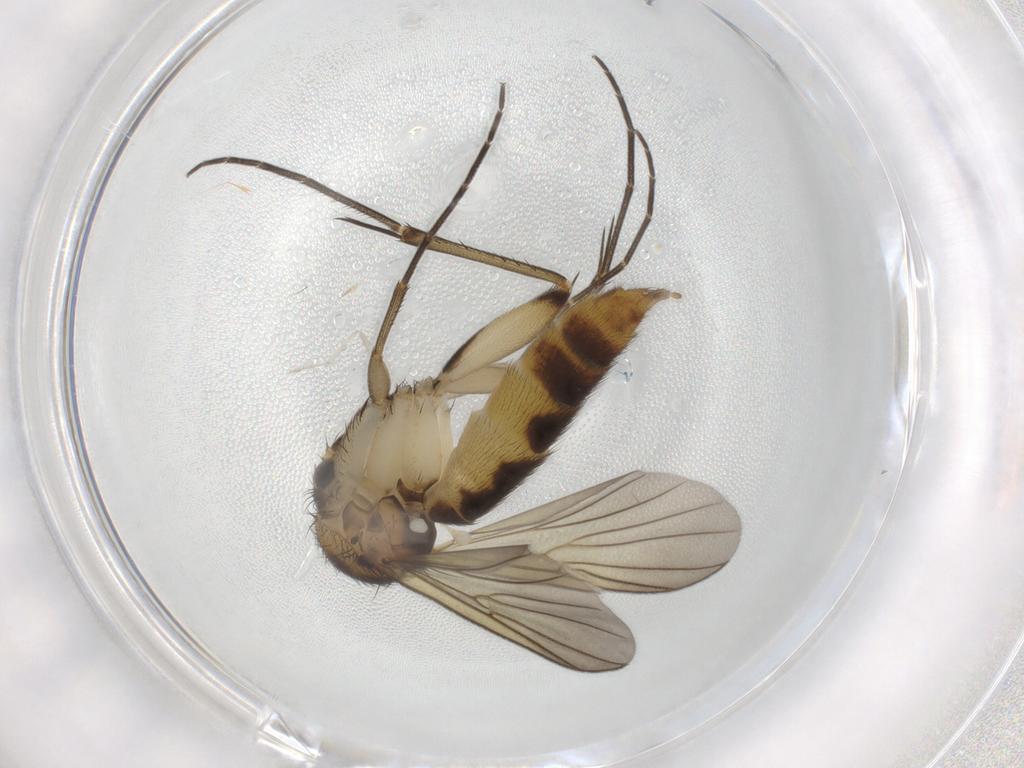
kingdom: Animalia
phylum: Arthropoda
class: Insecta
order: Diptera
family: Mycetophilidae
